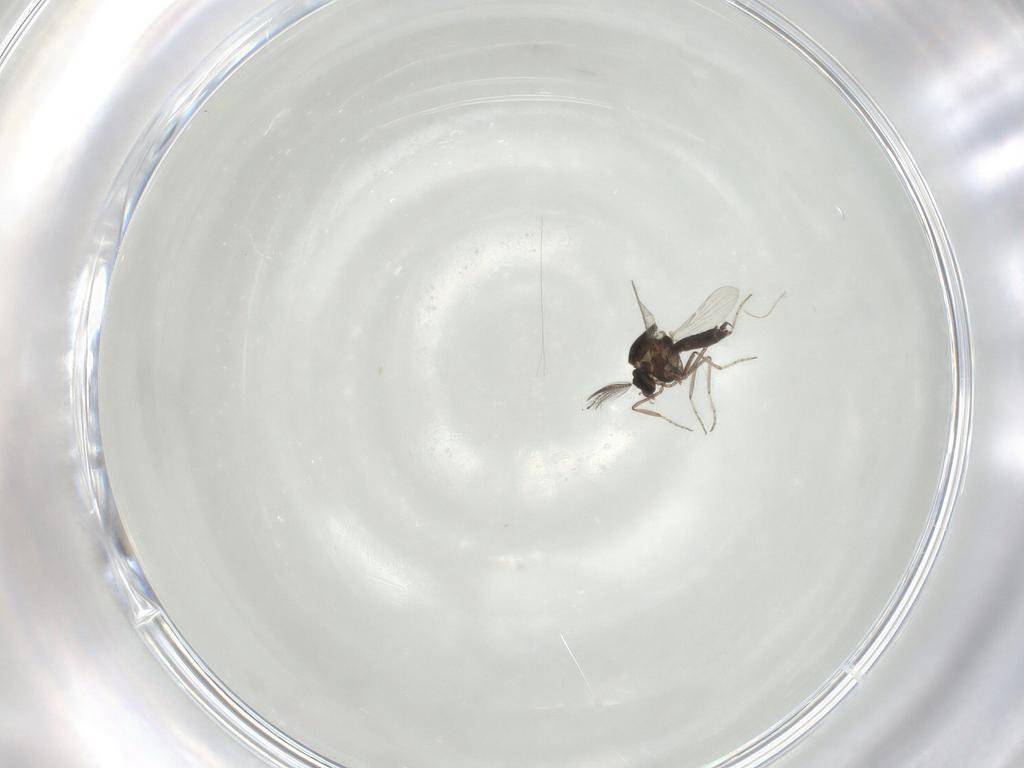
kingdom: Animalia
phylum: Arthropoda
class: Insecta
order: Diptera
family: Ceratopogonidae
